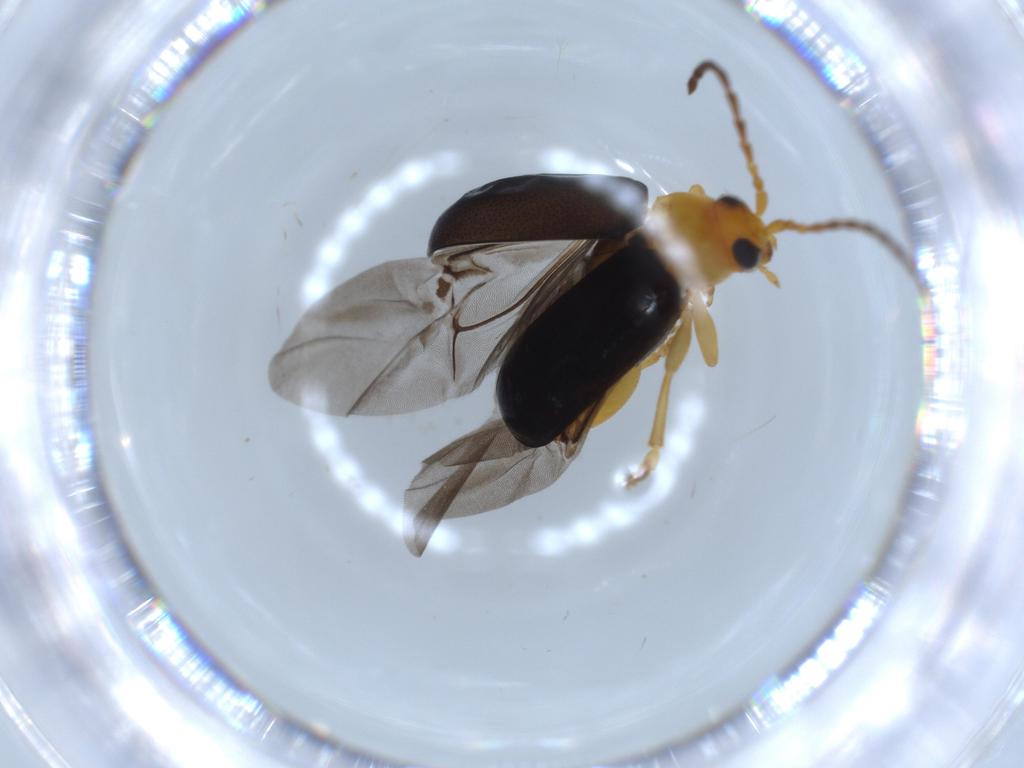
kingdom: Animalia
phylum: Arthropoda
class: Insecta
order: Coleoptera
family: Chrysomelidae
